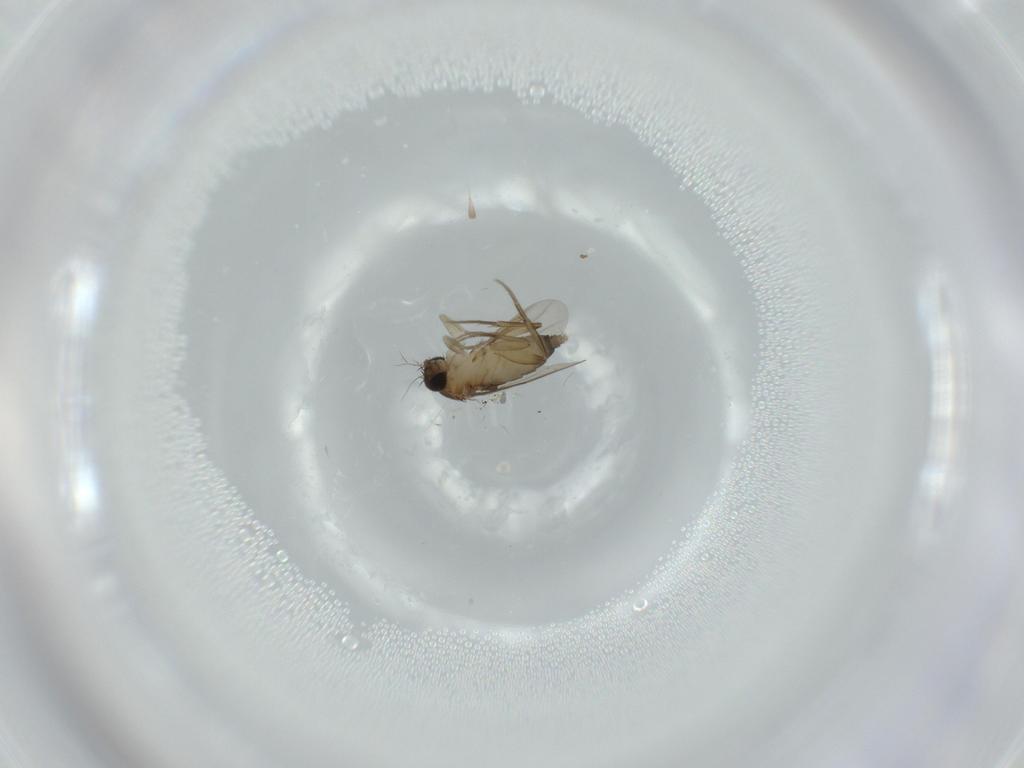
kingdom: Animalia
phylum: Arthropoda
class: Insecta
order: Diptera
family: Phoridae
